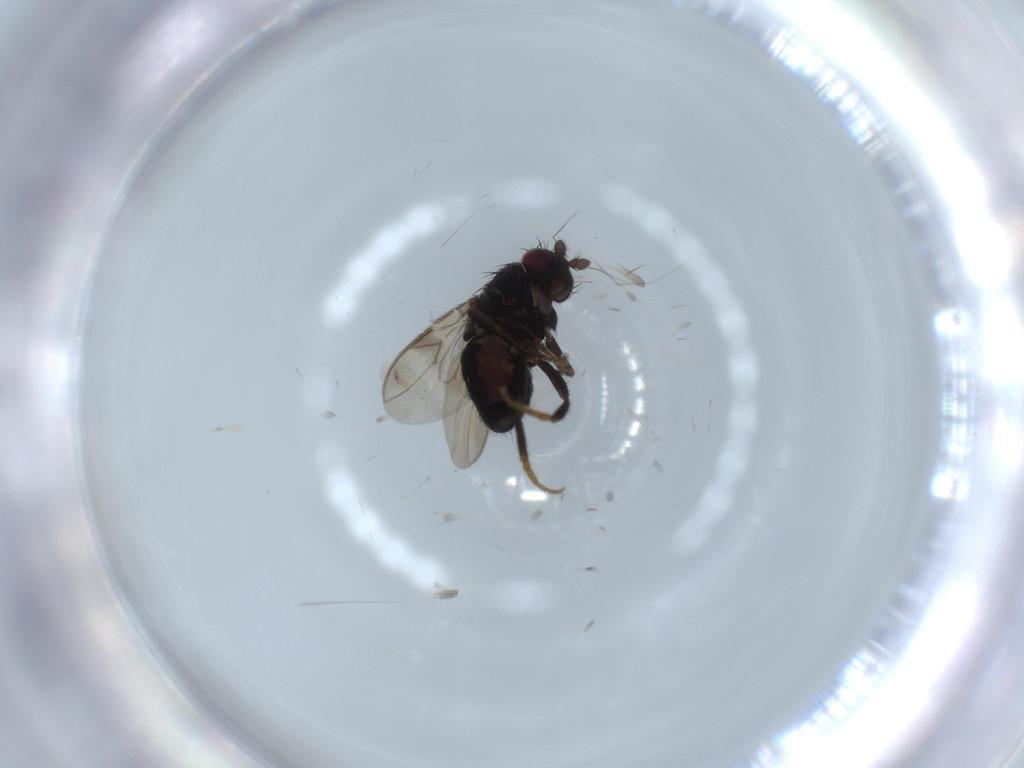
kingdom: Animalia
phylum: Arthropoda
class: Insecta
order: Diptera
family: Sphaeroceridae
